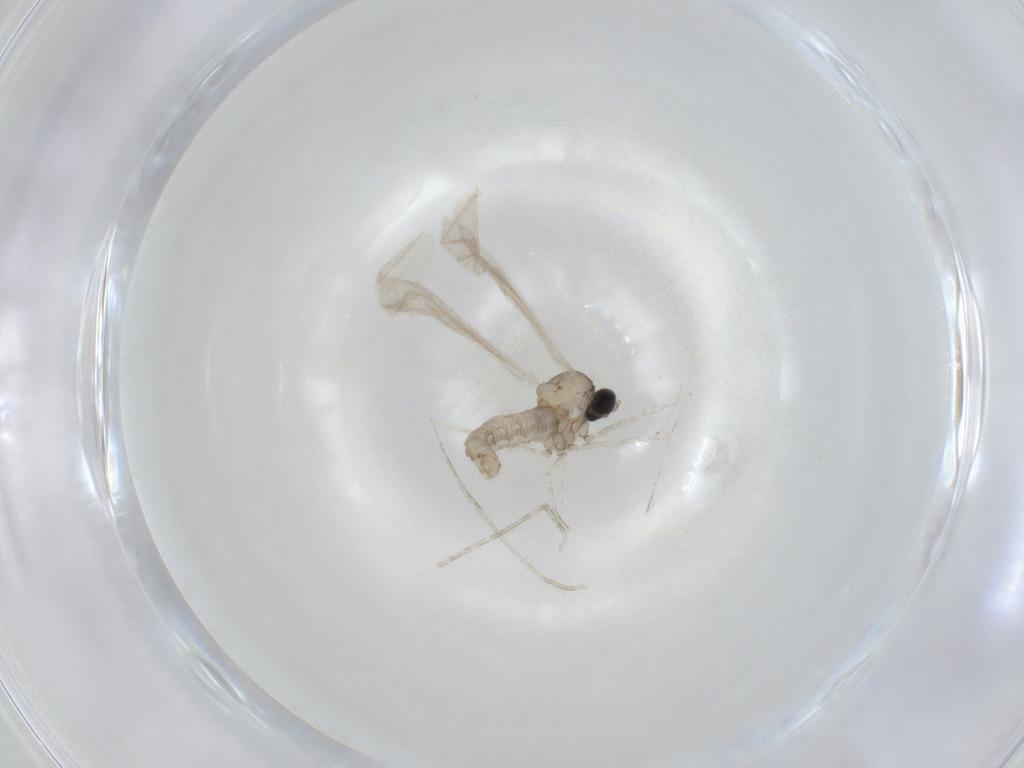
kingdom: Animalia
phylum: Arthropoda
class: Insecta
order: Diptera
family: Cecidomyiidae
